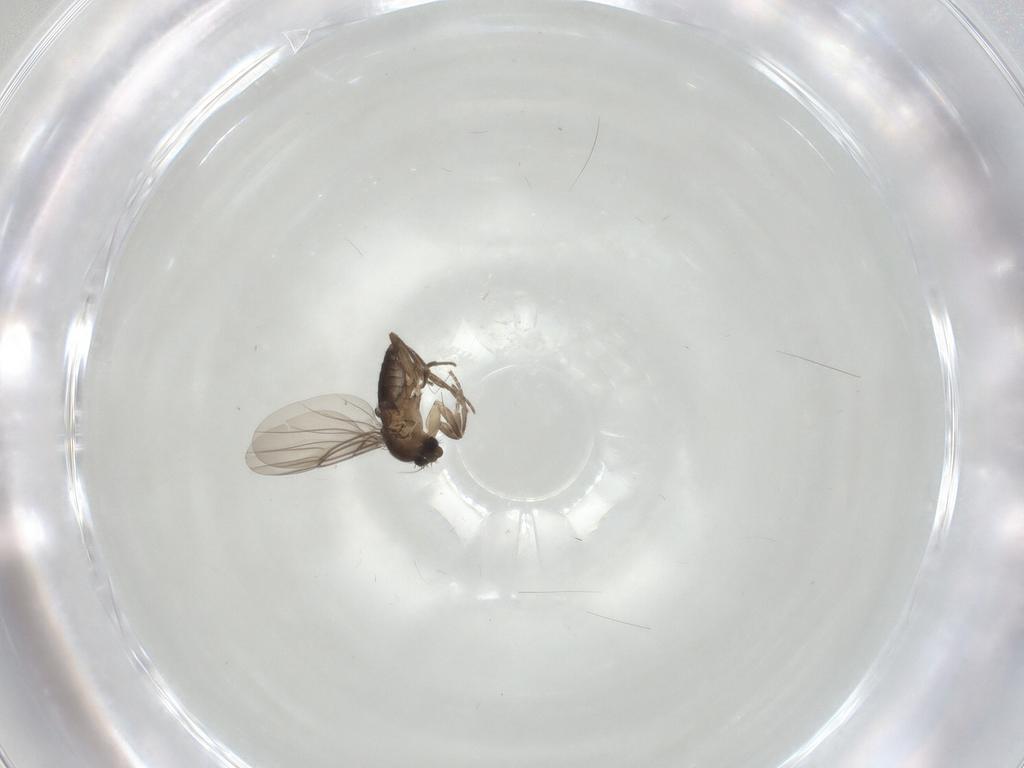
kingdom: Animalia
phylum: Arthropoda
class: Insecta
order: Diptera
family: Phoridae
